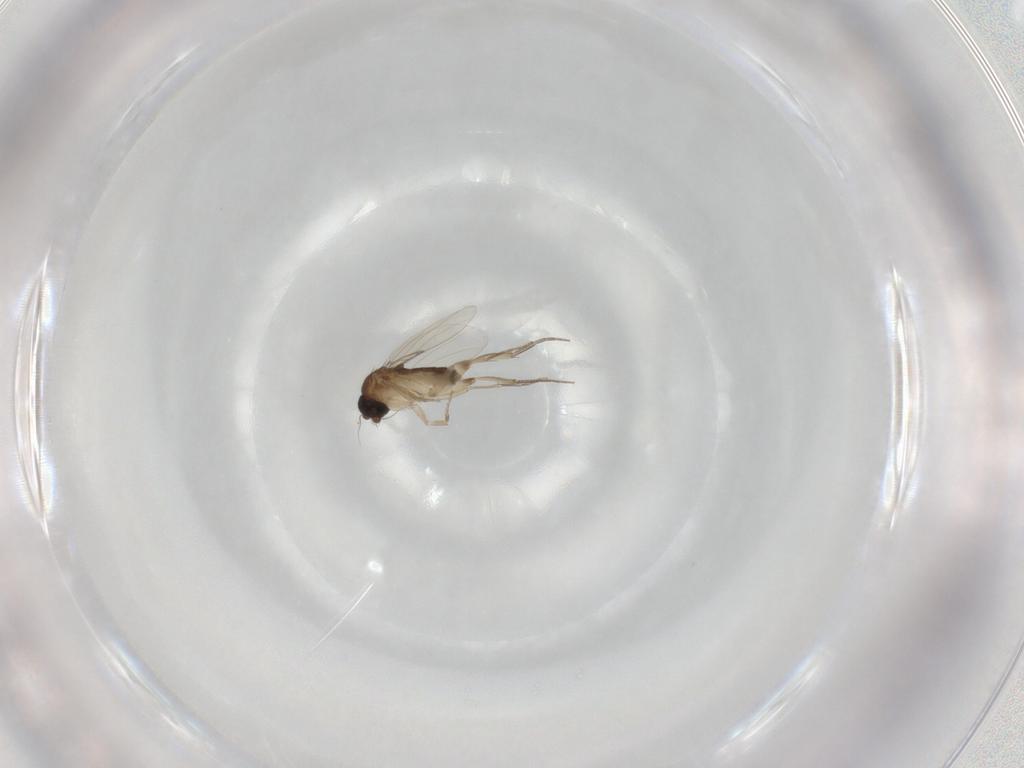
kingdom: Animalia
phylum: Arthropoda
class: Insecta
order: Diptera
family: Phoridae
